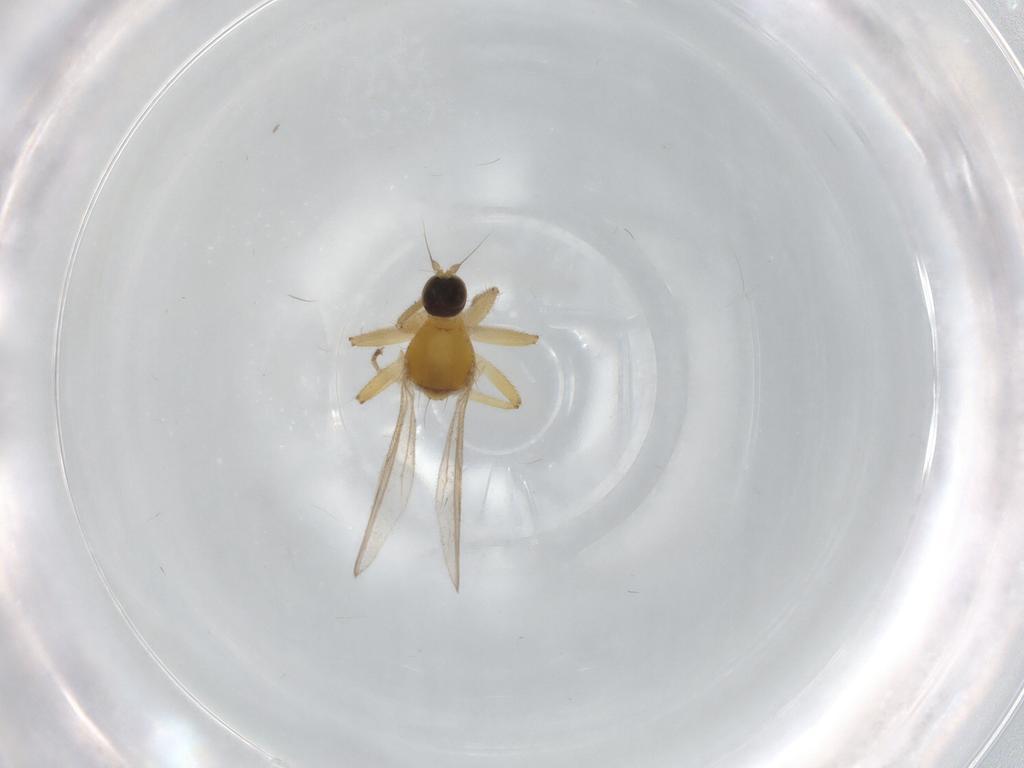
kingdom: Animalia
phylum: Arthropoda
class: Insecta
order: Diptera
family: Hybotidae
